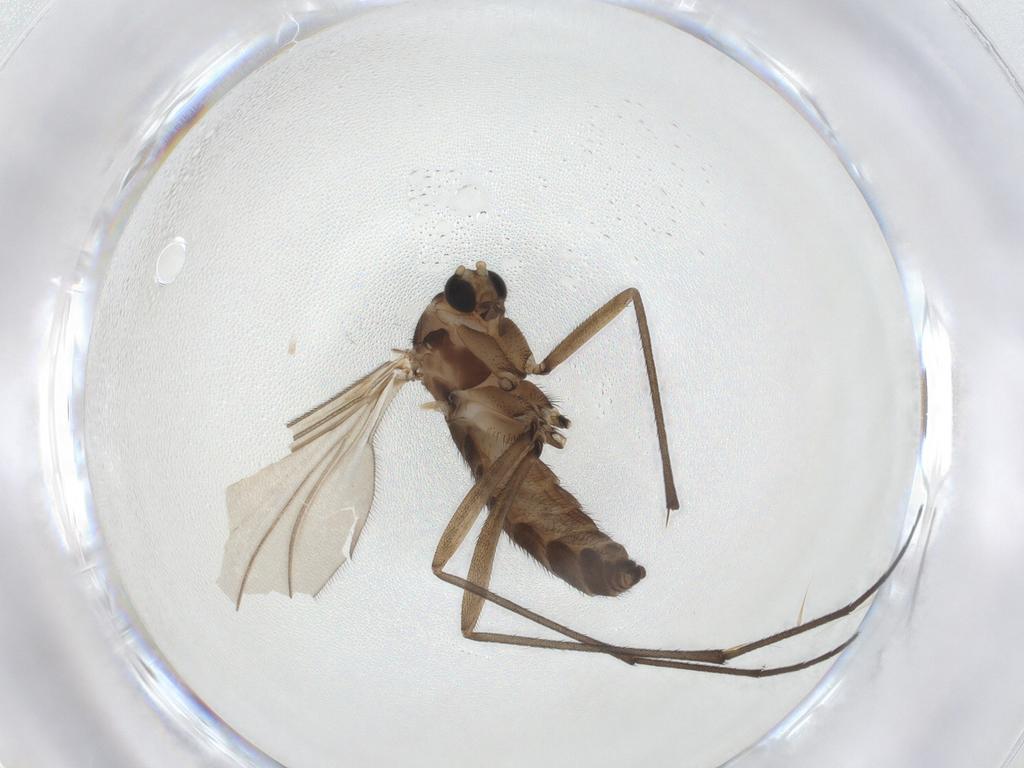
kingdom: Animalia
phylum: Arthropoda
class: Insecta
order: Diptera
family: Sciaridae
